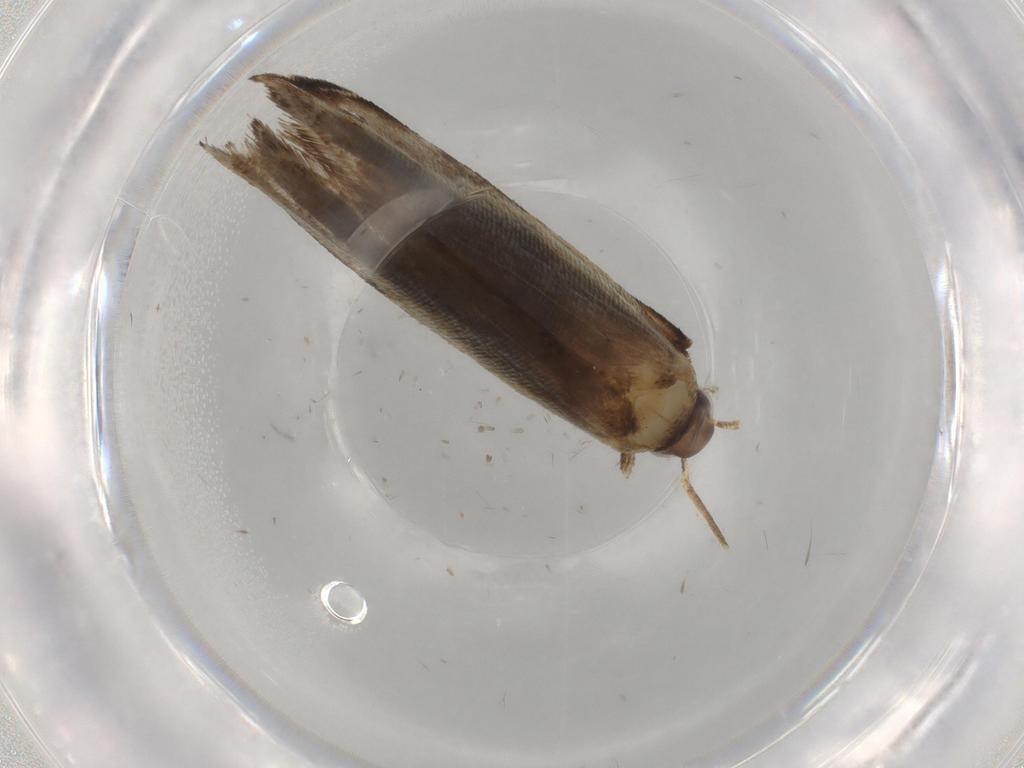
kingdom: Animalia
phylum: Arthropoda
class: Insecta
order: Lepidoptera
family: Gelechiidae
